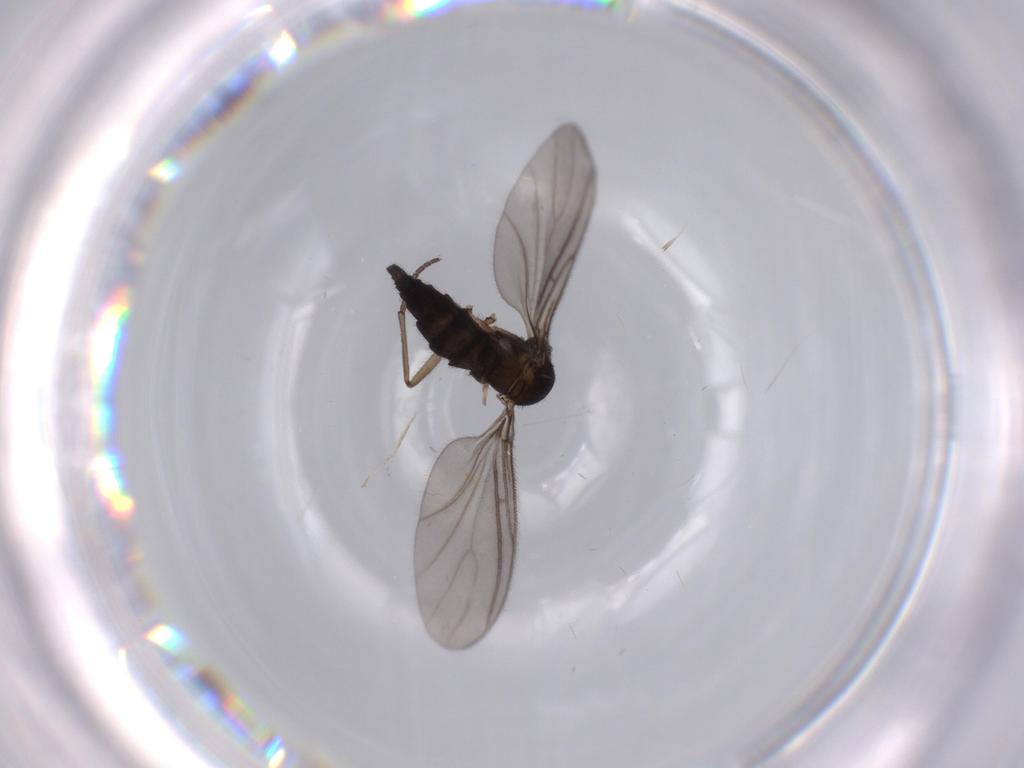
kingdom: Animalia
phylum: Arthropoda
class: Insecta
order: Diptera
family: Sciaridae
